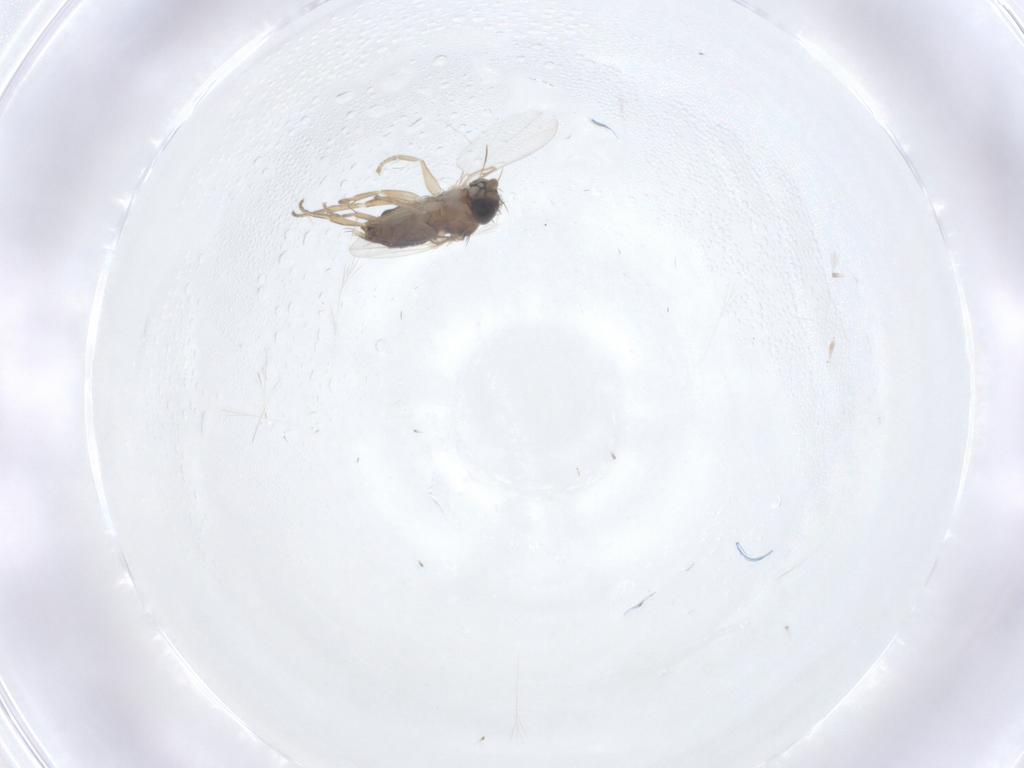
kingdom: Animalia
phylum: Arthropoda
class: Insecta
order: Diptera
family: Phoridae
